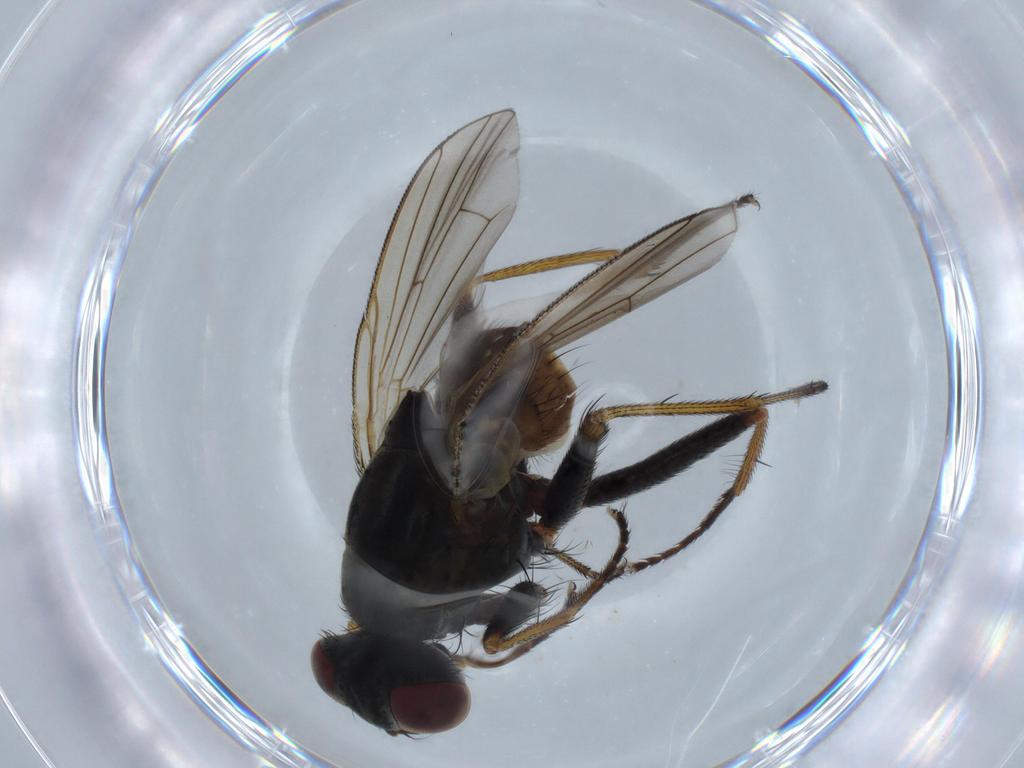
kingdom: Animalia
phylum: Arthropoda
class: Insecta
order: Diptera
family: Muscidae
